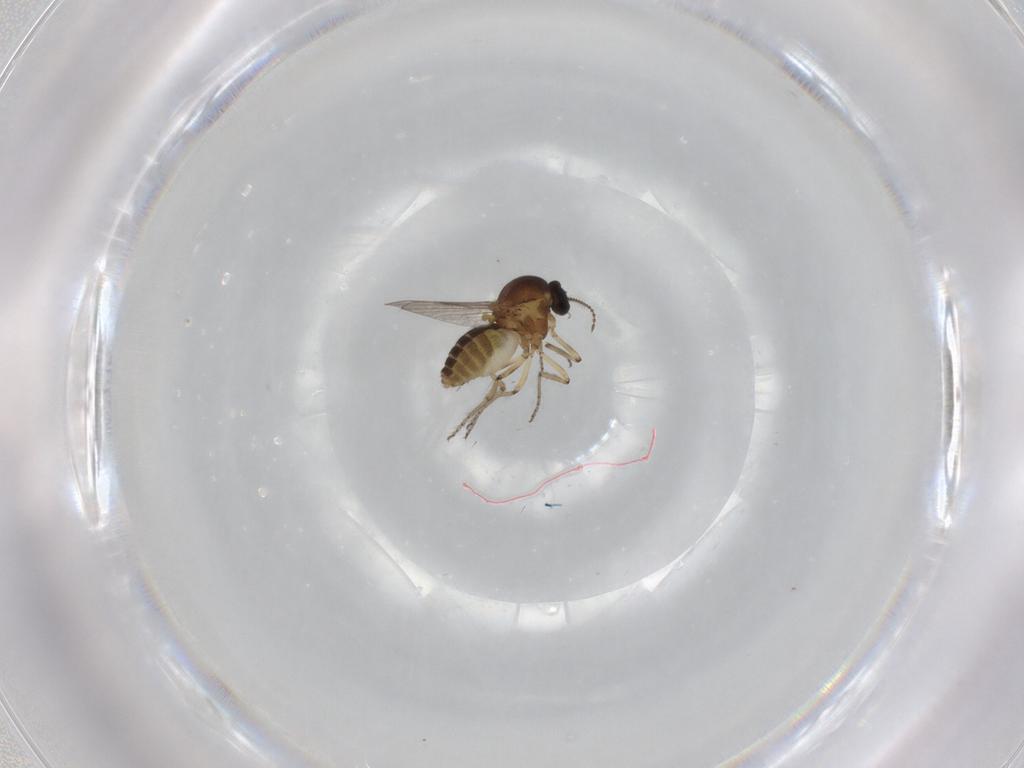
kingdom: Animalia
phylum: Arthropoda
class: Insecta
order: Diptera
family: Ceratopogonidae
